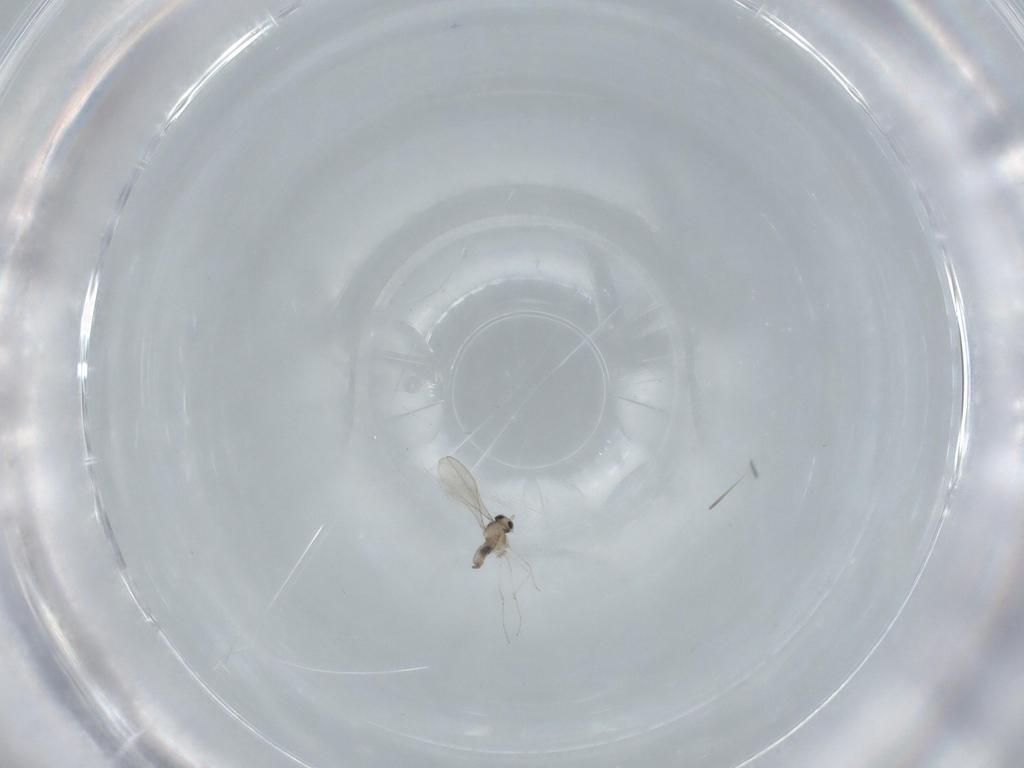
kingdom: Animalia
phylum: Arthropoda
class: Insecta
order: Diptera
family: Cecidomyiidae
